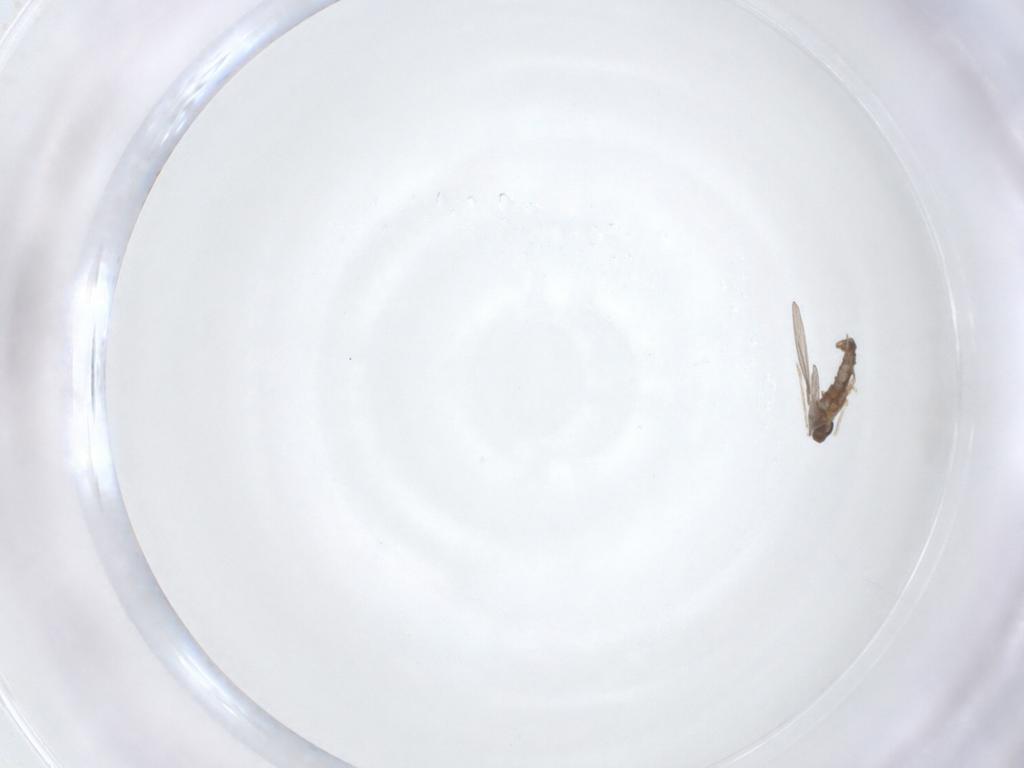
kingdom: Animalia
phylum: Arthropoda
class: Insecta
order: Diptera
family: Cecidomyiidae
